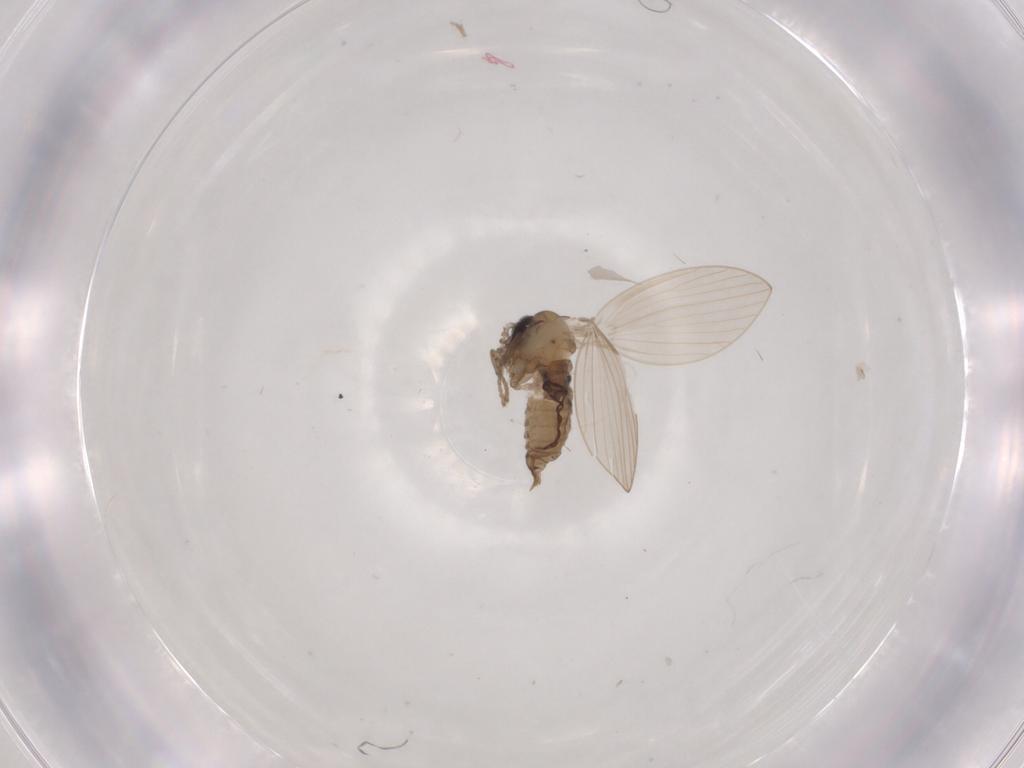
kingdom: Animalia
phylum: Arthropoda
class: Insecta
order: Diptera
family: Psychodidae
